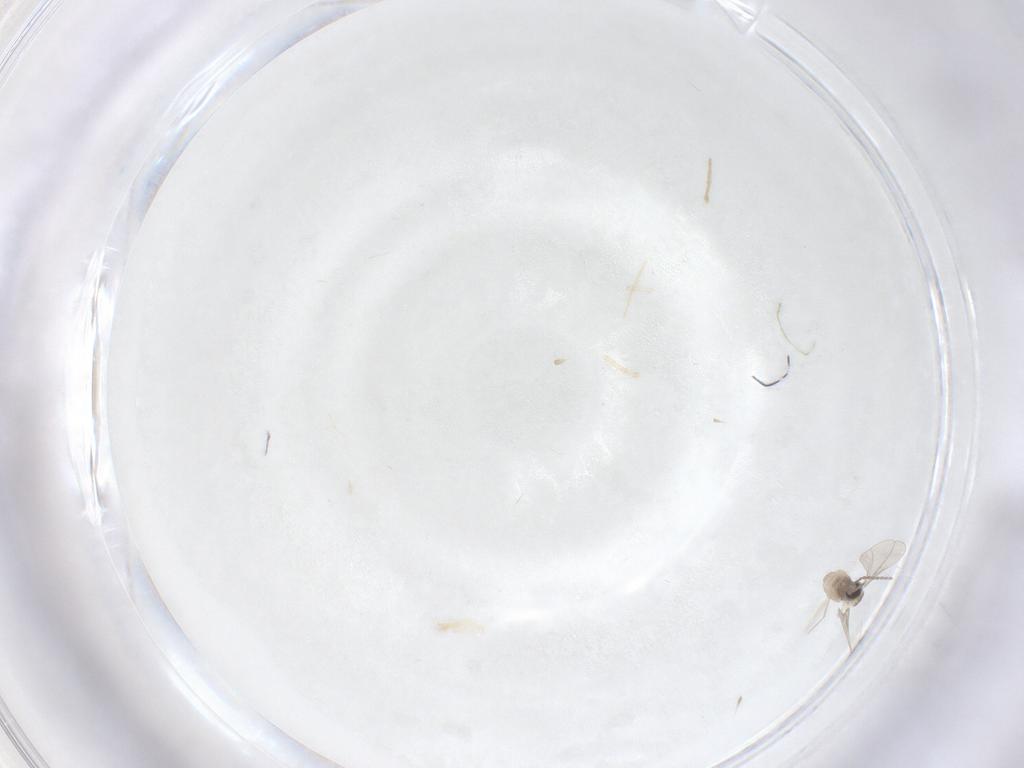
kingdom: Animalia
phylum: Arthropoda
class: Insecta
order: Diptera
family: Cecidomyiidae
